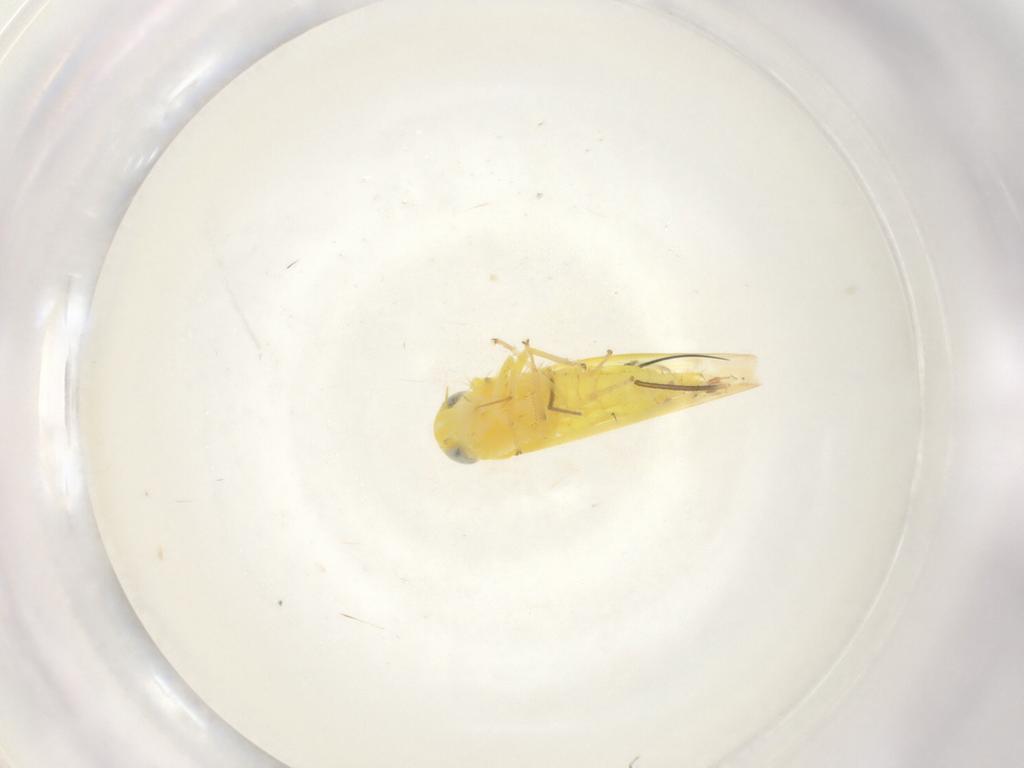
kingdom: Animalia
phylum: Arthropoda
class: Insecta
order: Hemiptera
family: Cicadellidae
